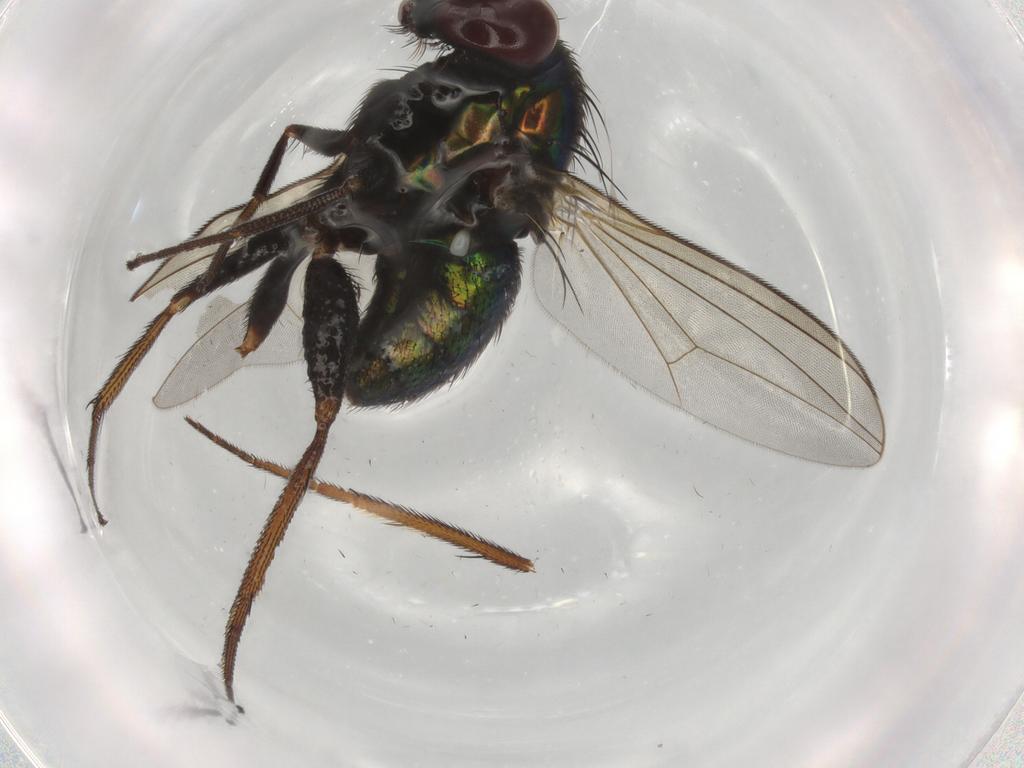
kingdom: Animalia
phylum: Arthropoda
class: Insecta
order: Diptera
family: Dolichopodidae
